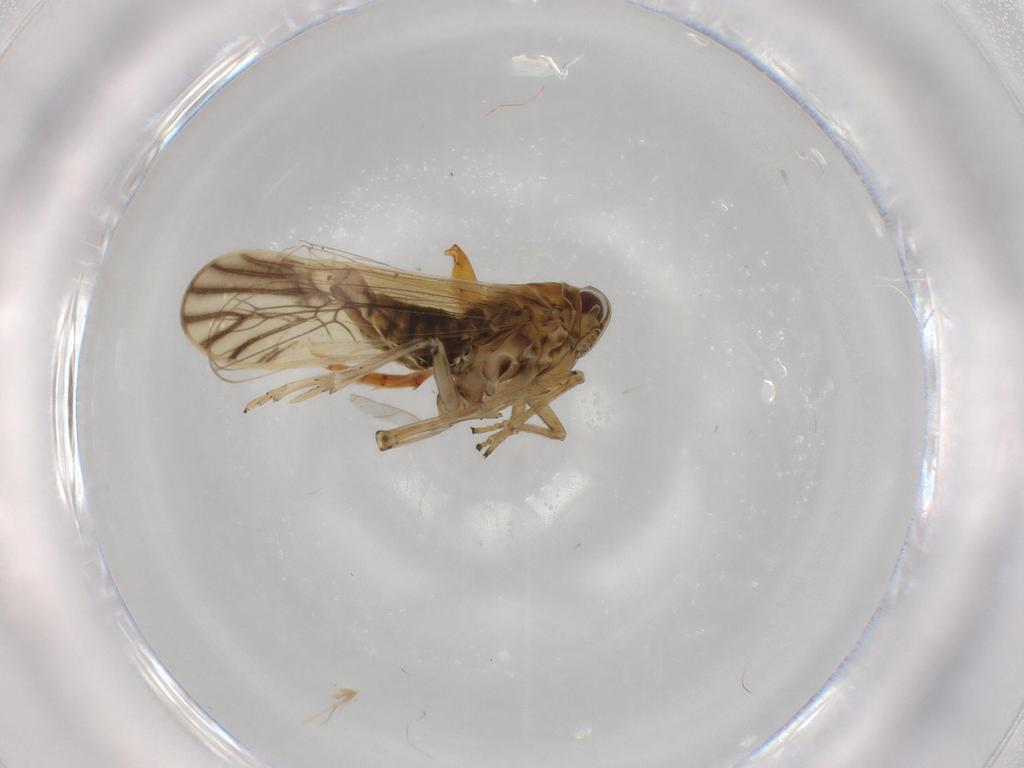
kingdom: Animalia
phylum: Arthropoda
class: Insecta
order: Hemiptera
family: Delphacidae
